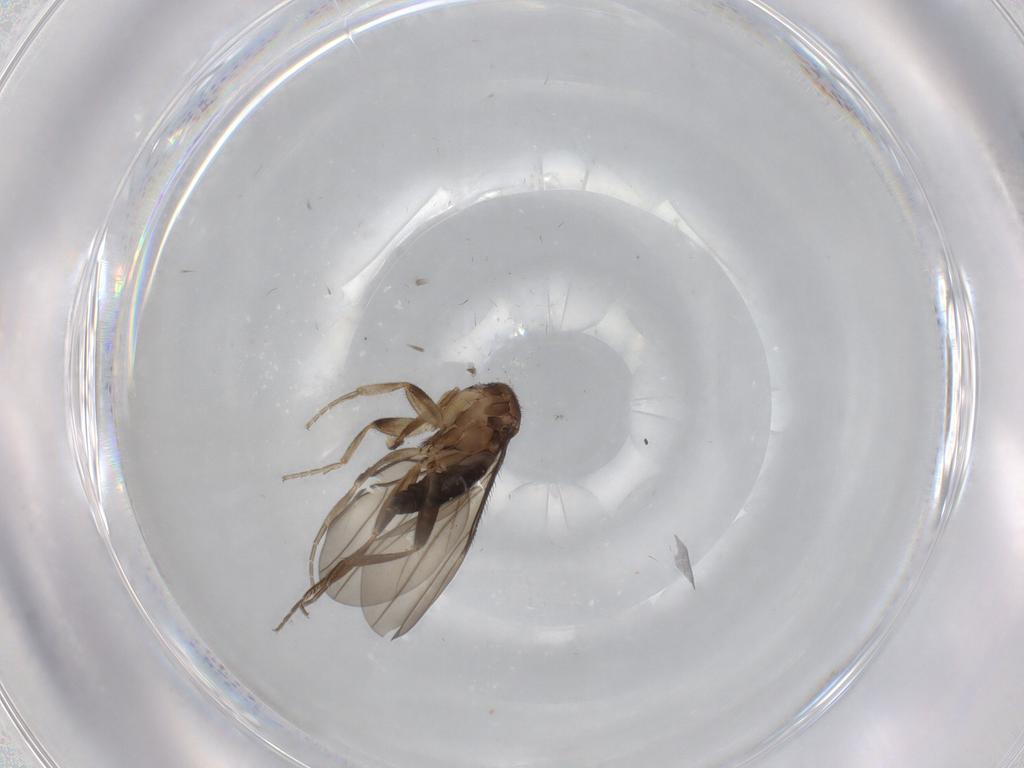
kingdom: Animalia
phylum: Arthropoda
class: Insecta
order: Diptera
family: Phoridae
